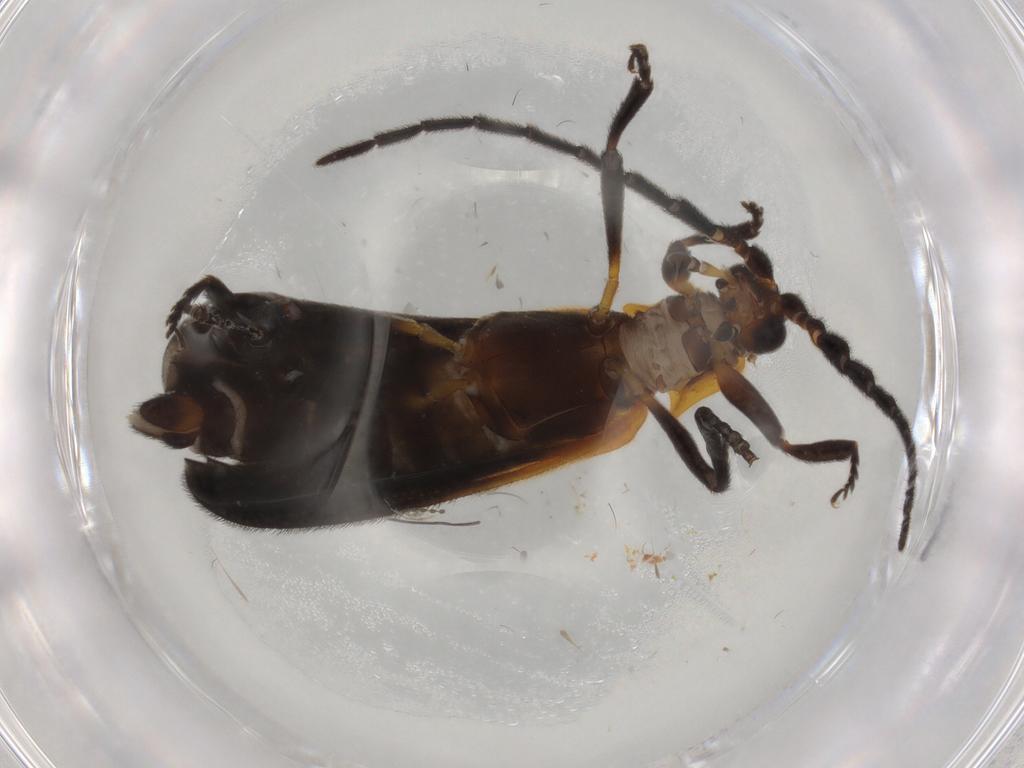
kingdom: Animalia
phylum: Arthropoda
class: Insecta
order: Coleoptera
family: Lycidae
